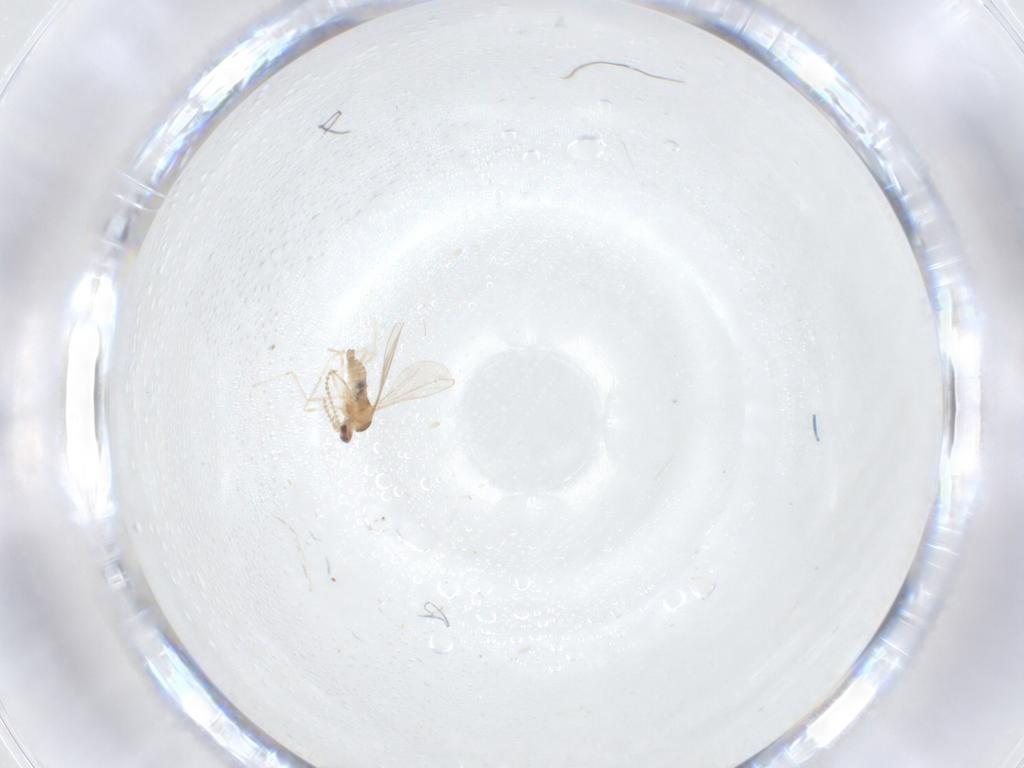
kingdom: Animalia
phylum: Arthropoda
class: Insecta
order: Diptera
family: Cecidomyiidae
